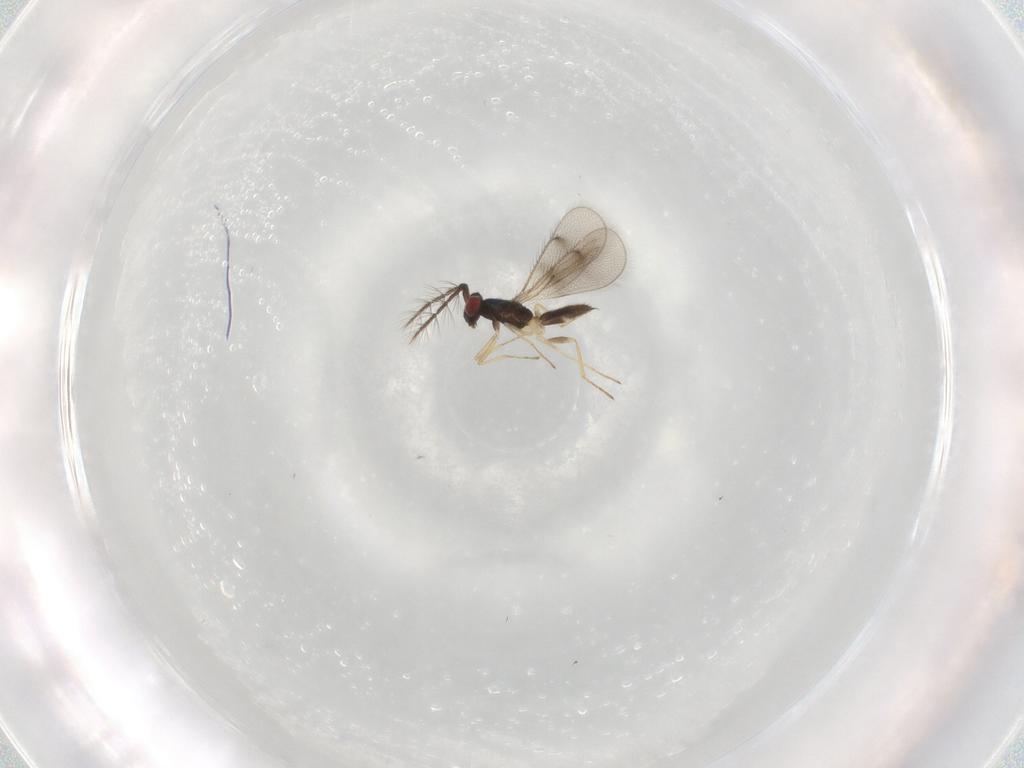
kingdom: Animalia
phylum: Arthropoda
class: Insecta
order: Hymenoptera
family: Eulophidae
